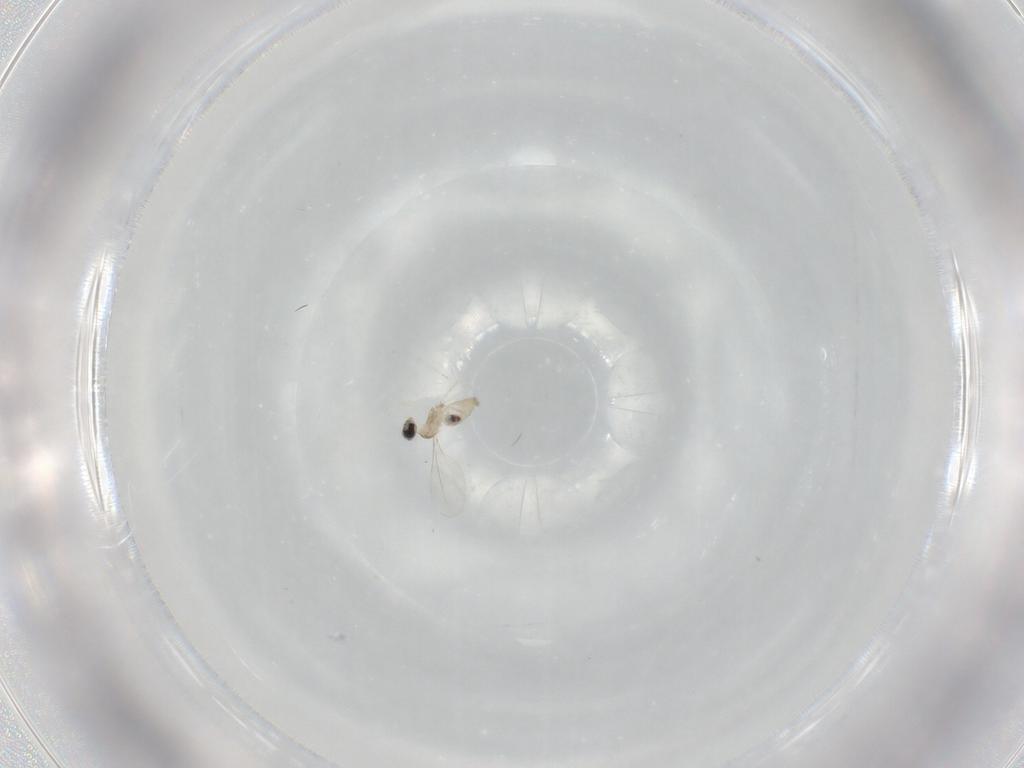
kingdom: Animalia
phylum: Arthropoda
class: Insecta
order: Diptera
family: Cecidomyiidae
